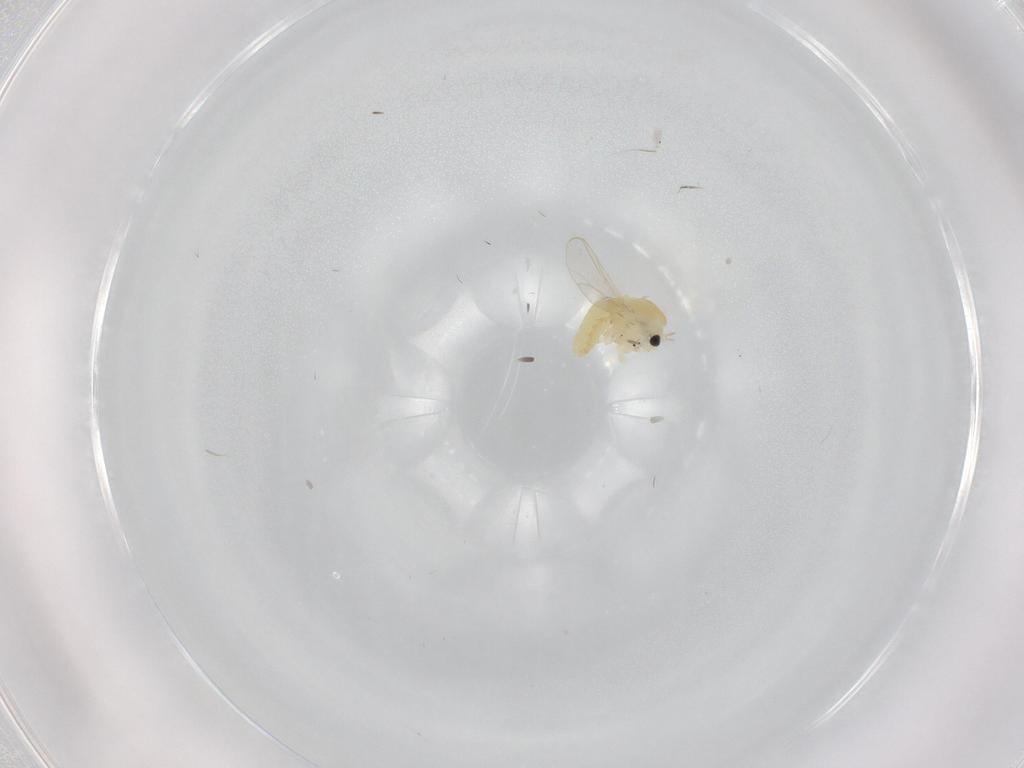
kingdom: Animalia
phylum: Arthropoda
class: Insecta
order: Diptera
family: Chironomidae
